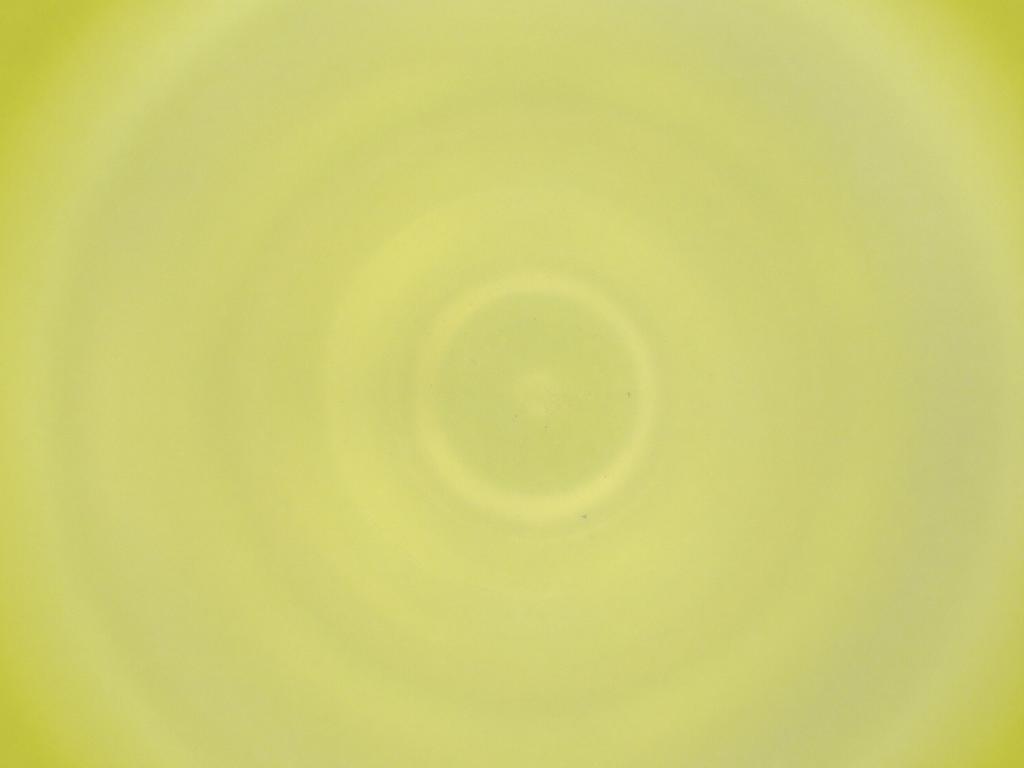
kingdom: Animalia
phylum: Arthropoda
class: Insecta
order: Diptera
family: Cecidomyiidae
